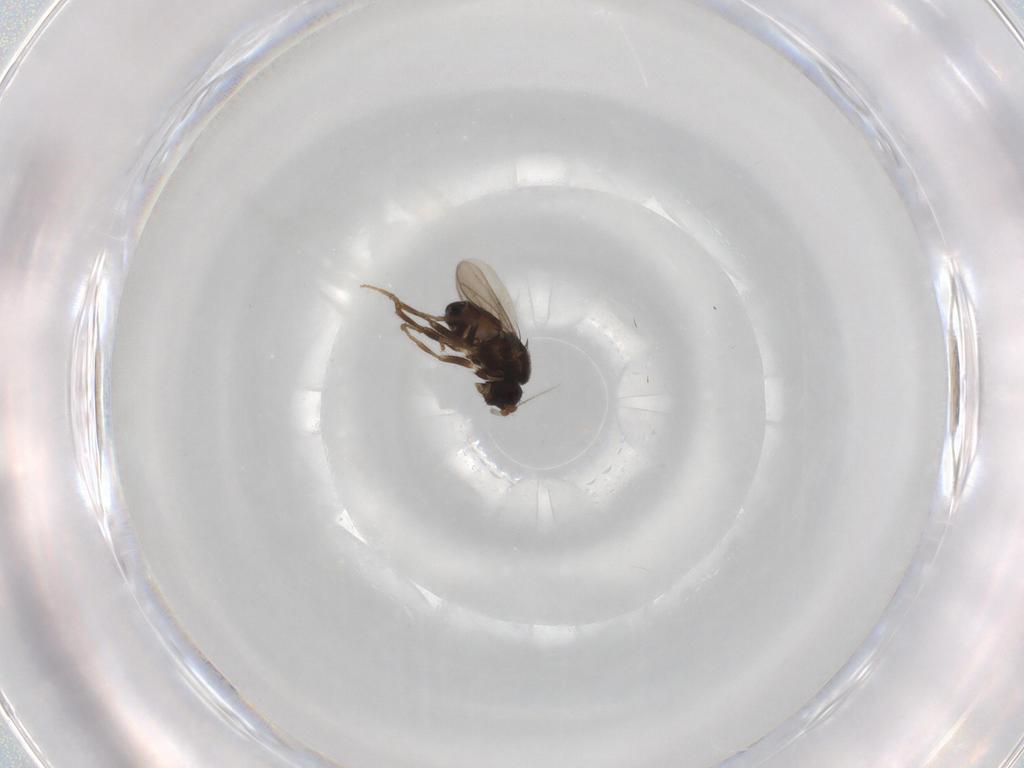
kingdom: Animalia
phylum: Arthropoda
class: Insecta
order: Diptera
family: Sphaeroceridae
